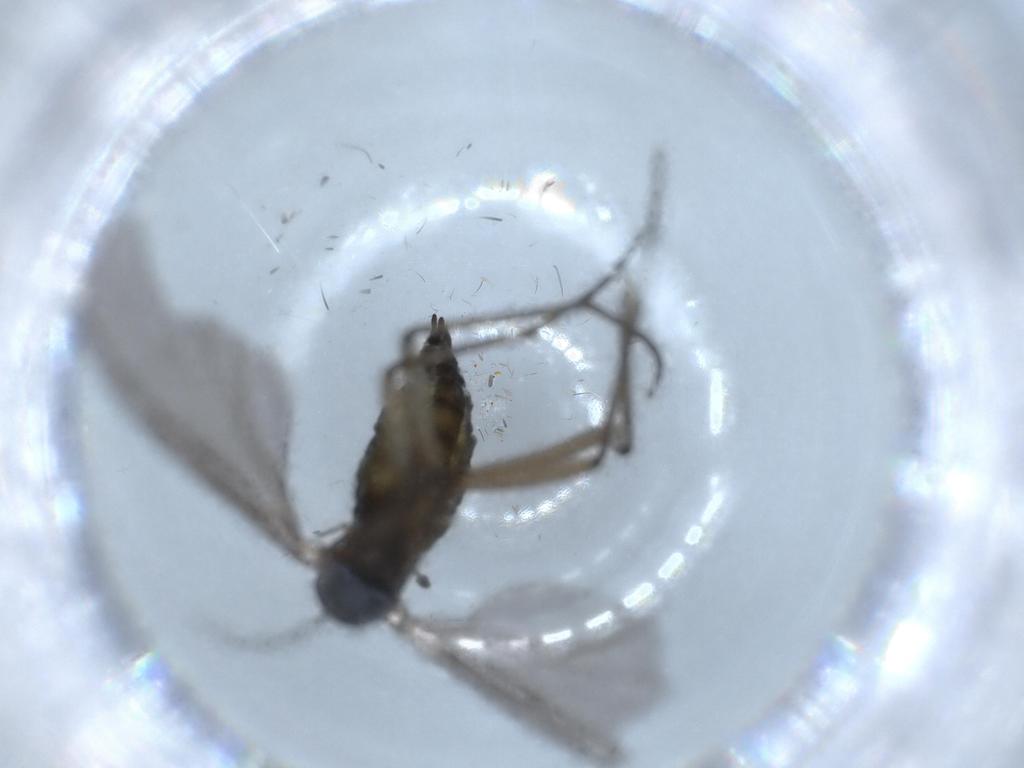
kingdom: Animalia
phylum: Arthropoda
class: Insecta
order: Diptera
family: Sciaridae
